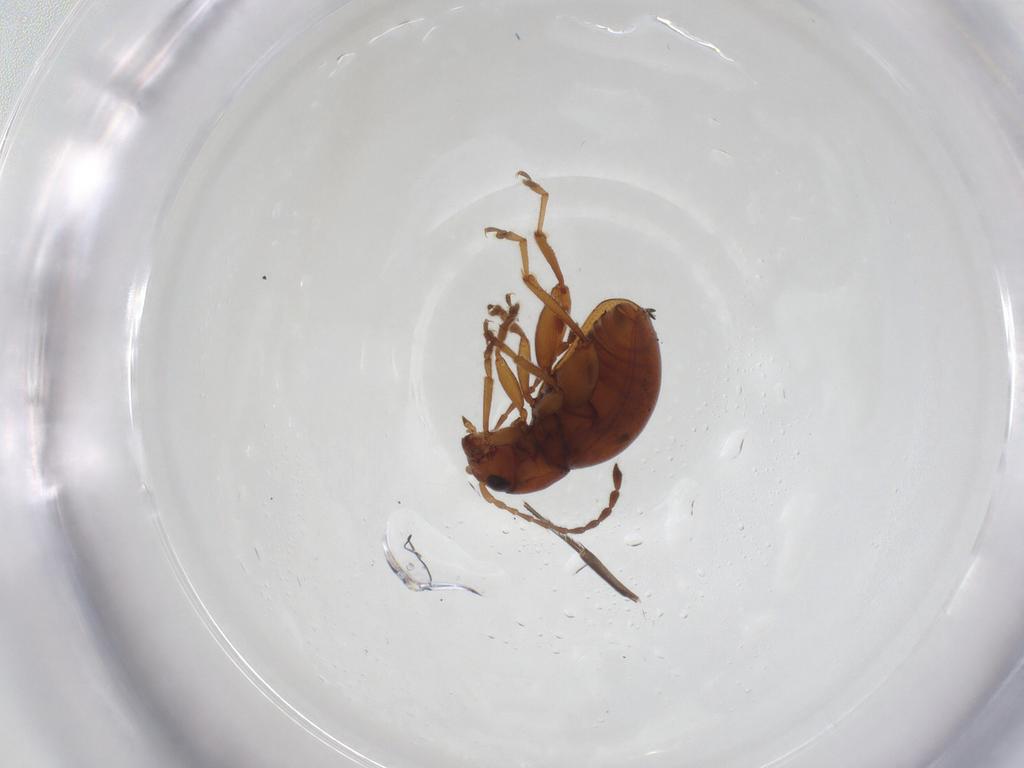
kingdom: Animalia
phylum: Arthropoda
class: Insecta
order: Coleoptera
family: Chrysomelidae
